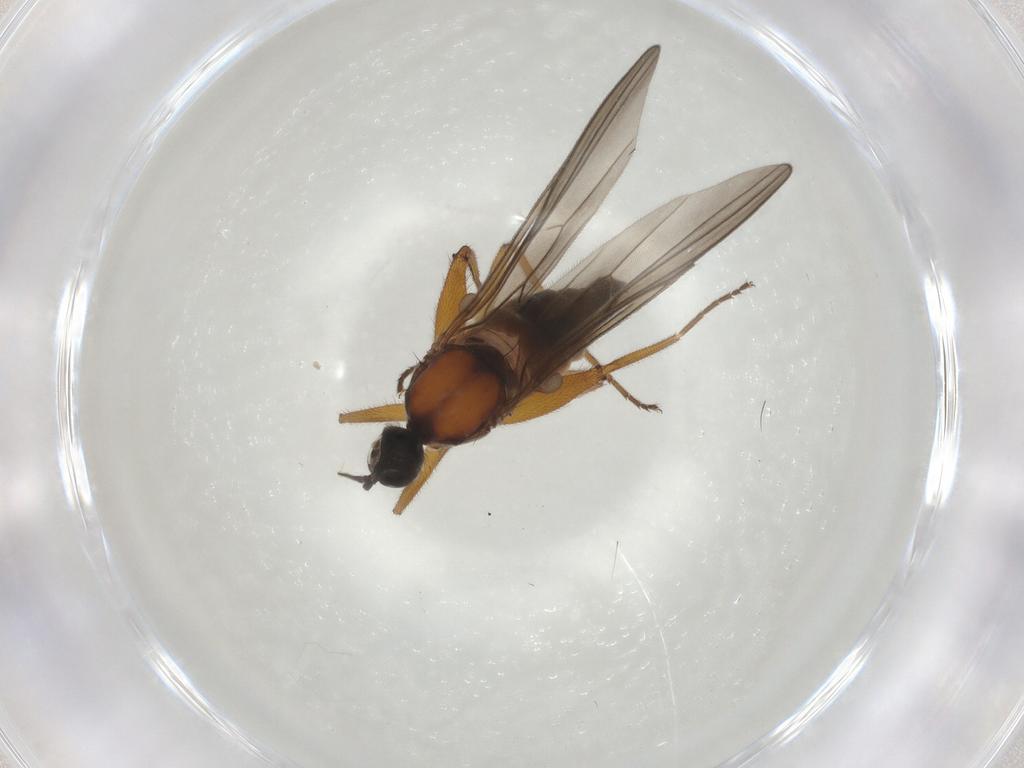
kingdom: Animalia
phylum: Arthropoda
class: Insecta
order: Diptera
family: Hybotidae
